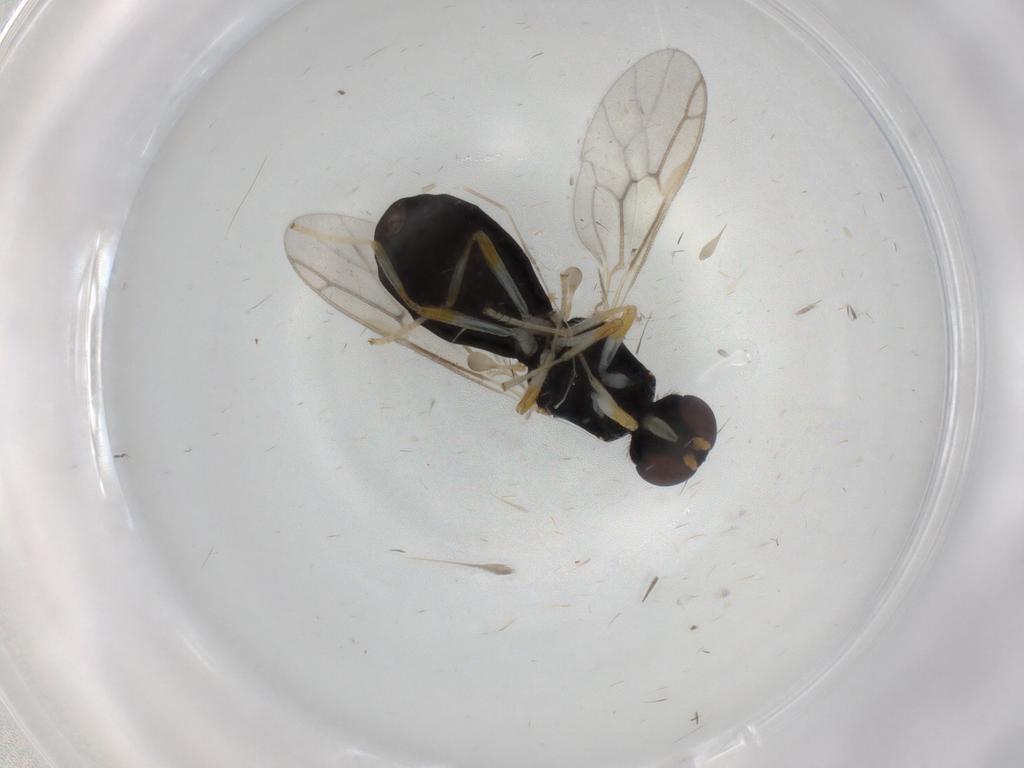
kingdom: Animalia
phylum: Arthropoda
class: Insecta
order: Diptera
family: Stratiomyidae
